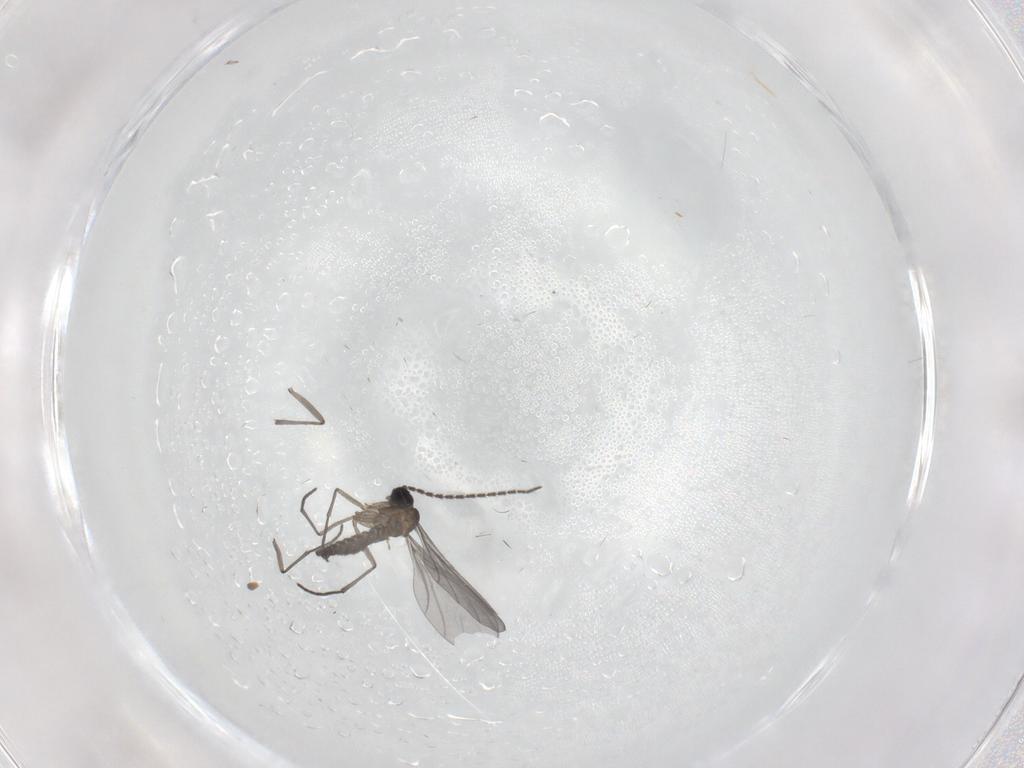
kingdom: Animalia
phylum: Arthropoda
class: Insecta
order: Diptera
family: Sciaridae
